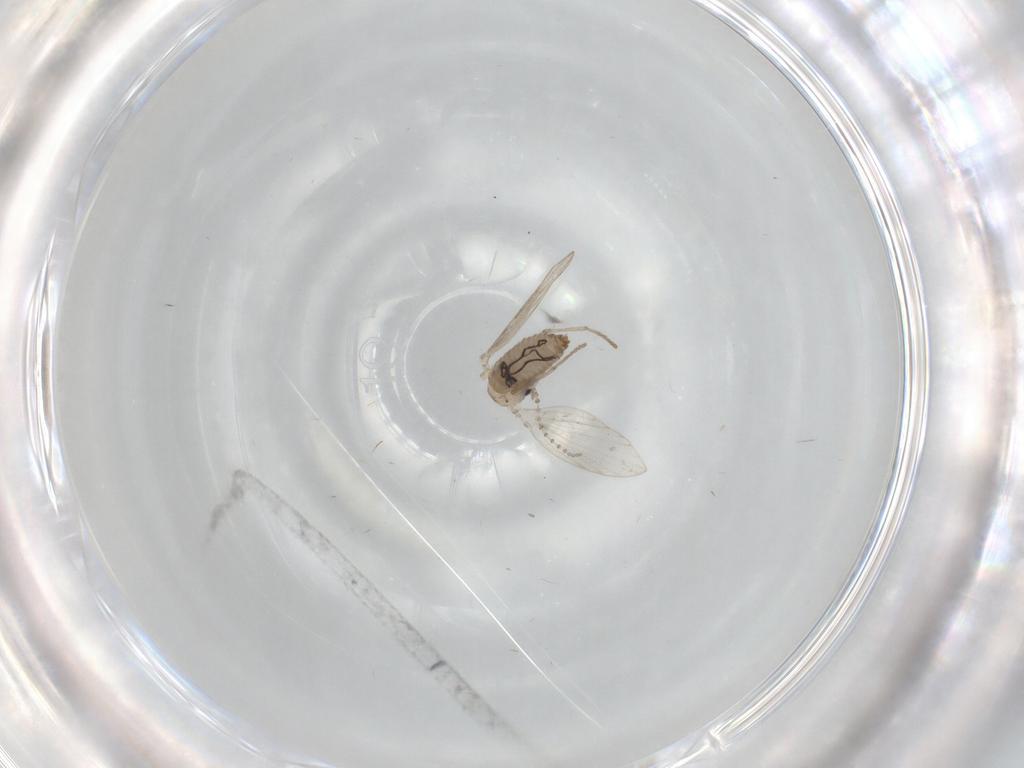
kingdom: Animalia
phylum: Arthropoda
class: Insecta
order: Diptera
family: Psychodidae
